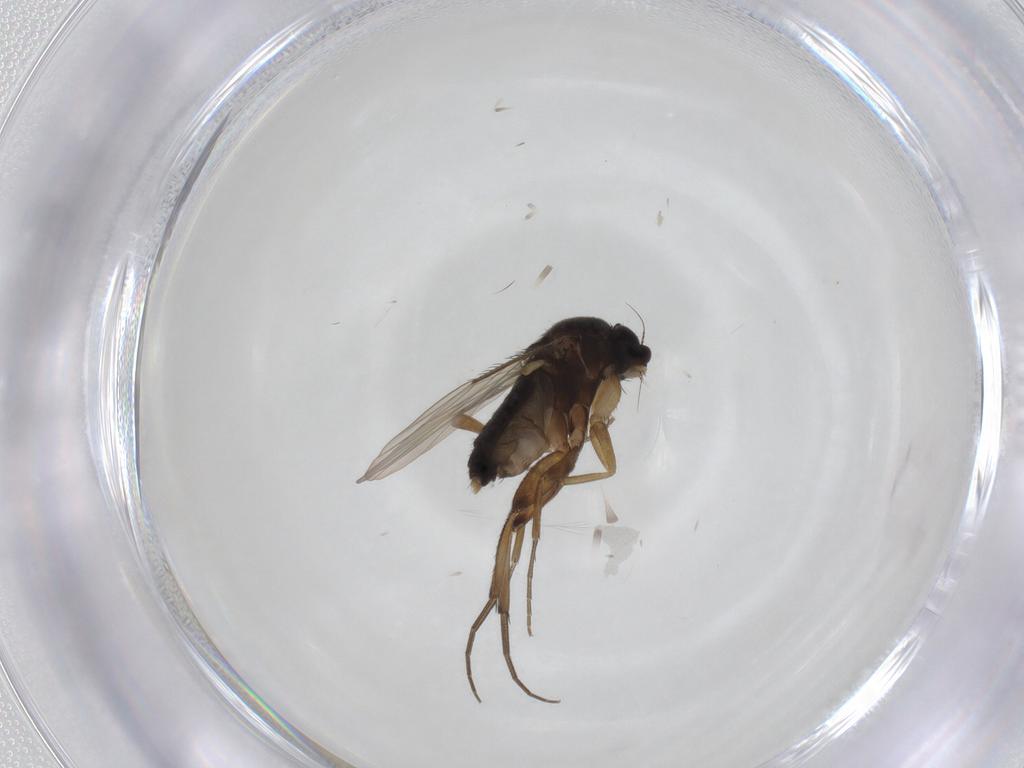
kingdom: Animalia
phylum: Arthropoda
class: Insecta
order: Diptera
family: Phoridae
